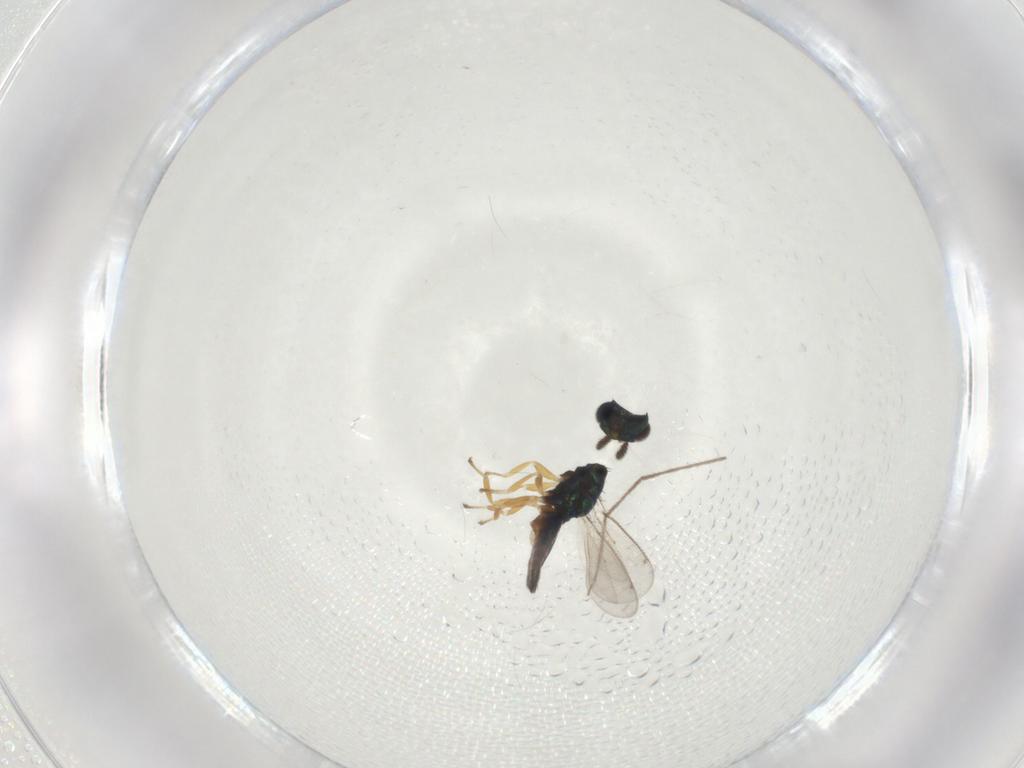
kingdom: Animalia
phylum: Arthropoda
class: Insecta
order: Hymenoptera
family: Eulophidae
